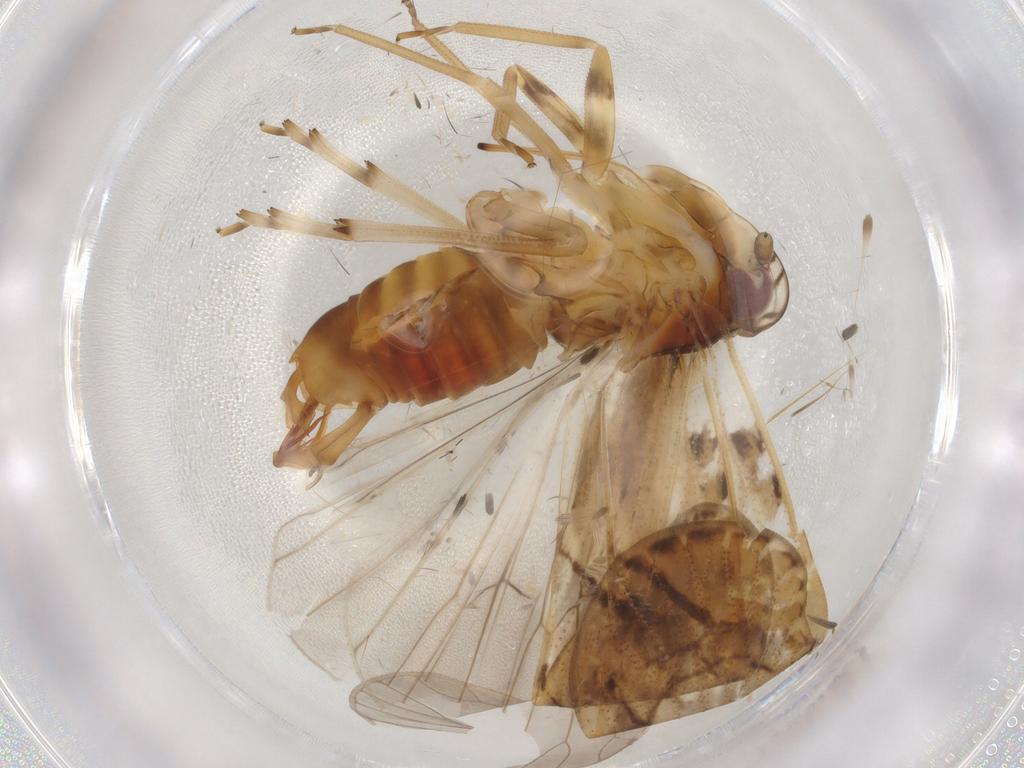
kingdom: Animalia
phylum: Arthropoda
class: Insecta
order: Hemiptera
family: Cixiidae
